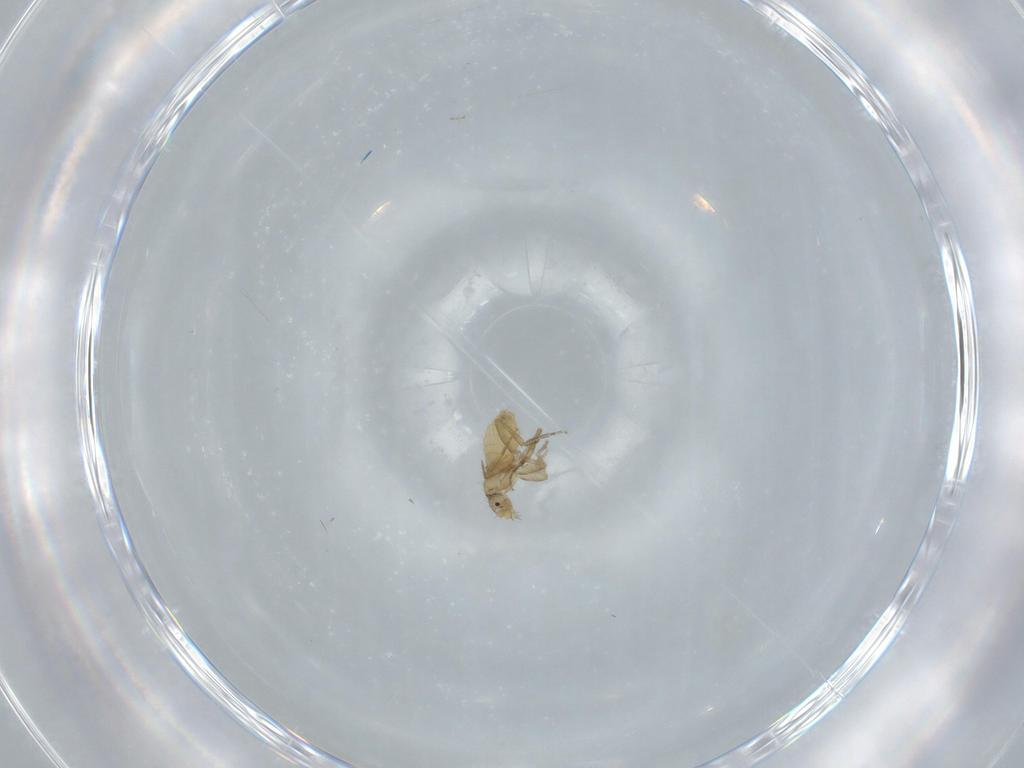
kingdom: Animalia
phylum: Arthropoda
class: Insecta
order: Diptera
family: Phoridae
